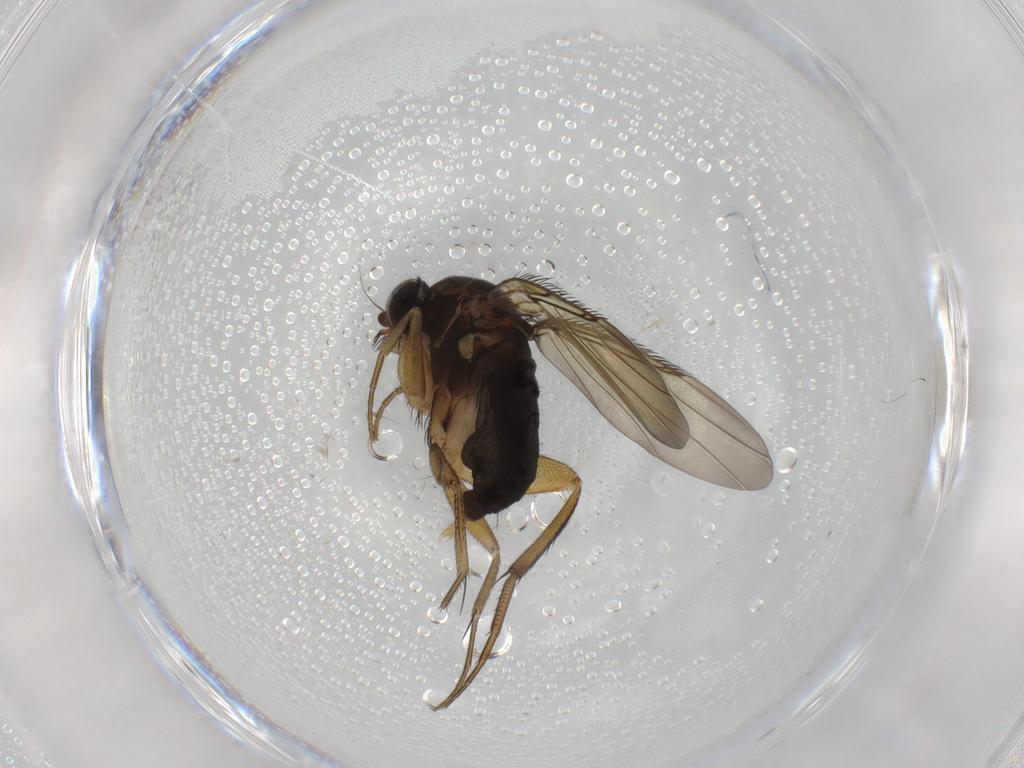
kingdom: Animalia
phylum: Arthropoda
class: Insecta
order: Diptera
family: Phoridae
